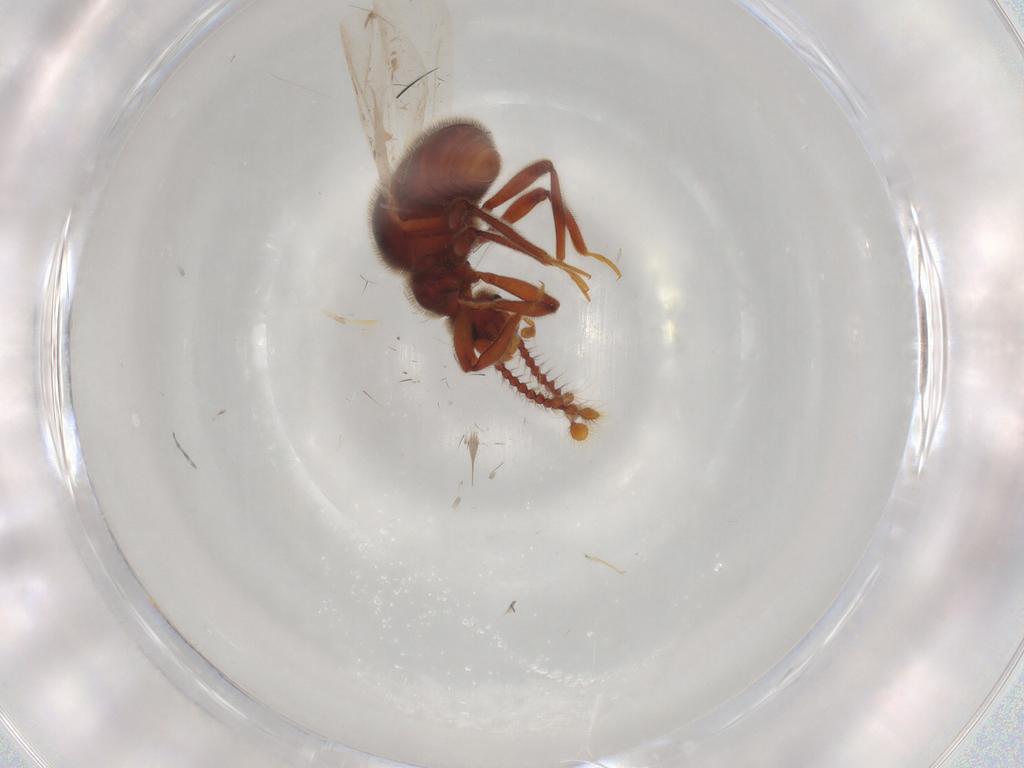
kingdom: Animalia
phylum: Arthropoda
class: Insecta
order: Coleoptera
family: Staphylinidae
